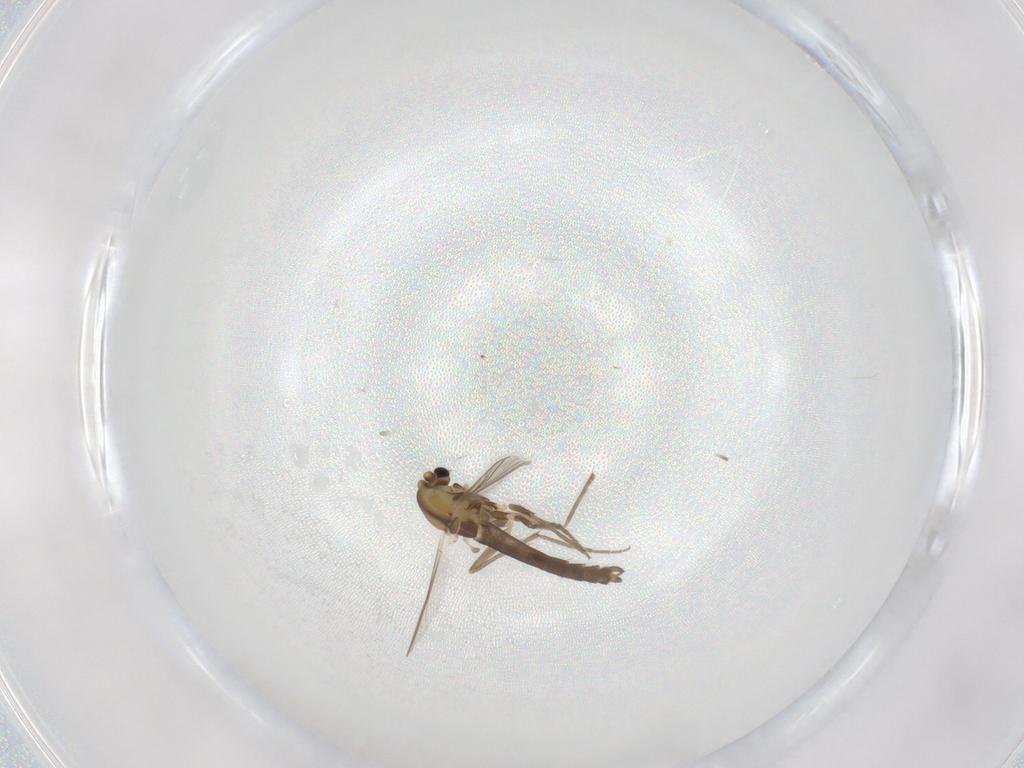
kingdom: Animalia
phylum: Arthropoda
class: Insecta
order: Diptera
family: Chironomidae
